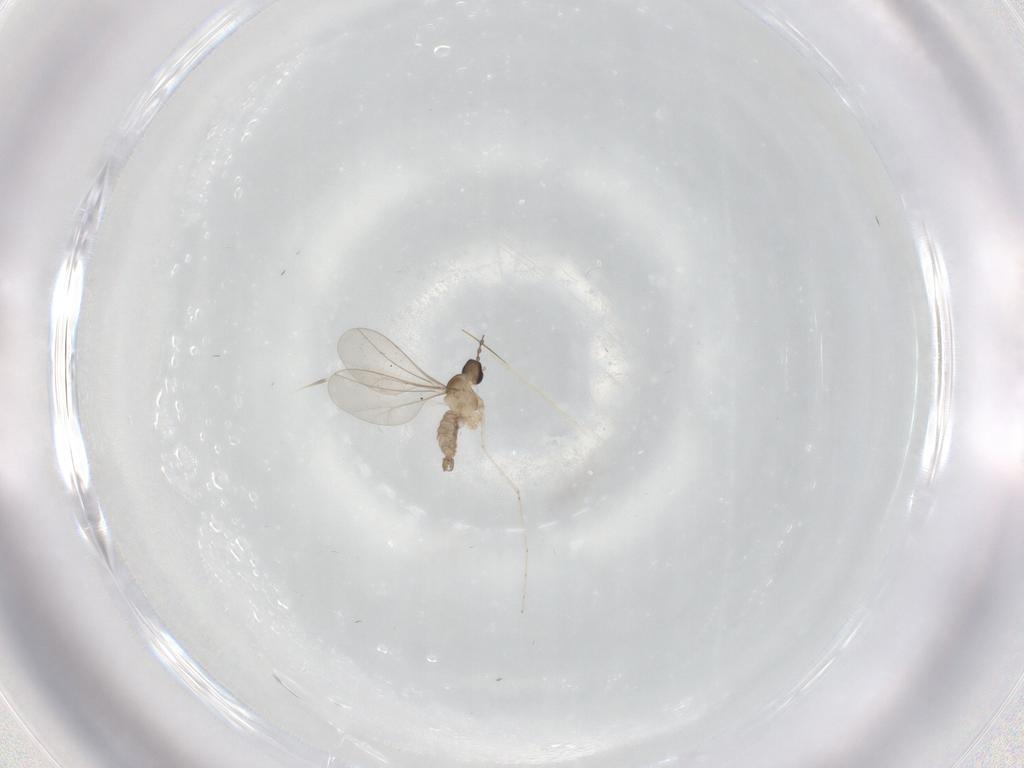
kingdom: Animalia
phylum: Arthropoda
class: Insecta
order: Diptera
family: Cecidomyiidae
